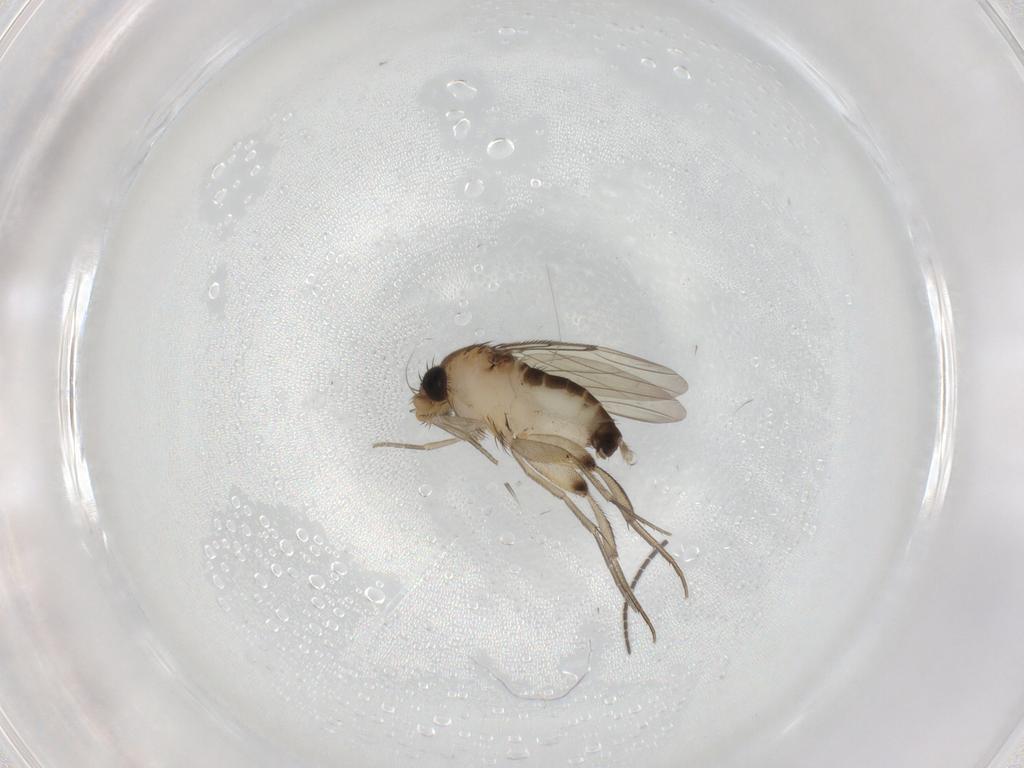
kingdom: Animalia
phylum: Arthropoda
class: Insecta
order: Diptera
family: Phoridae
